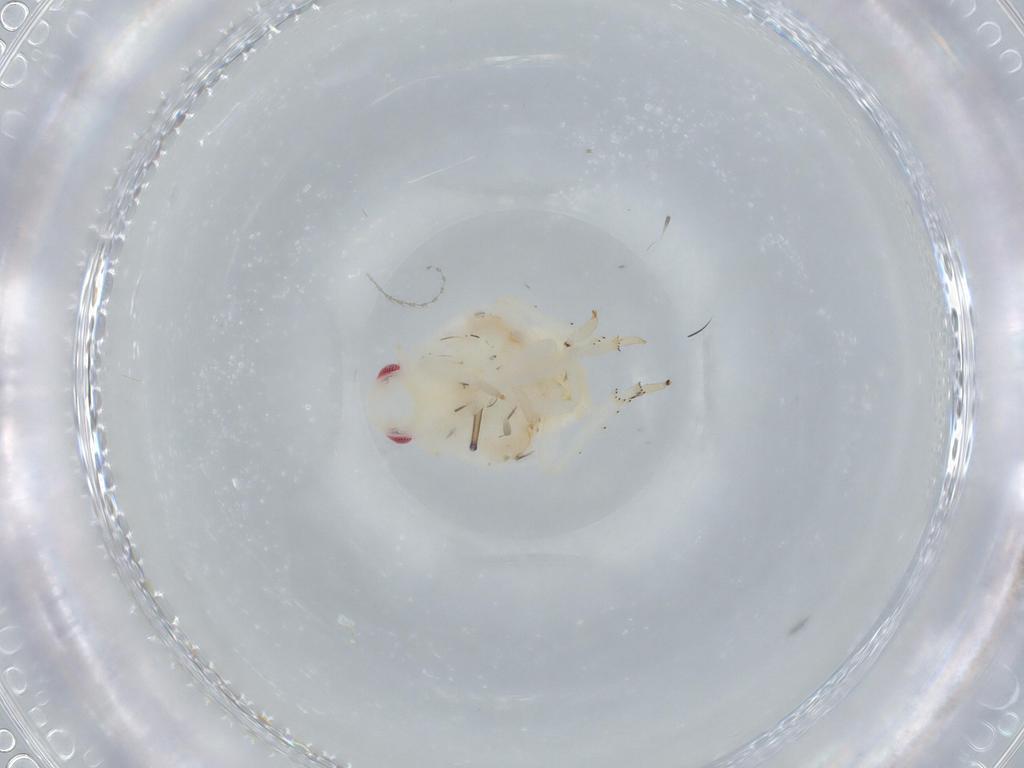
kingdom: Animalia
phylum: Arthropoda
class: Insecta
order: Hemiptera
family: Flatidae
